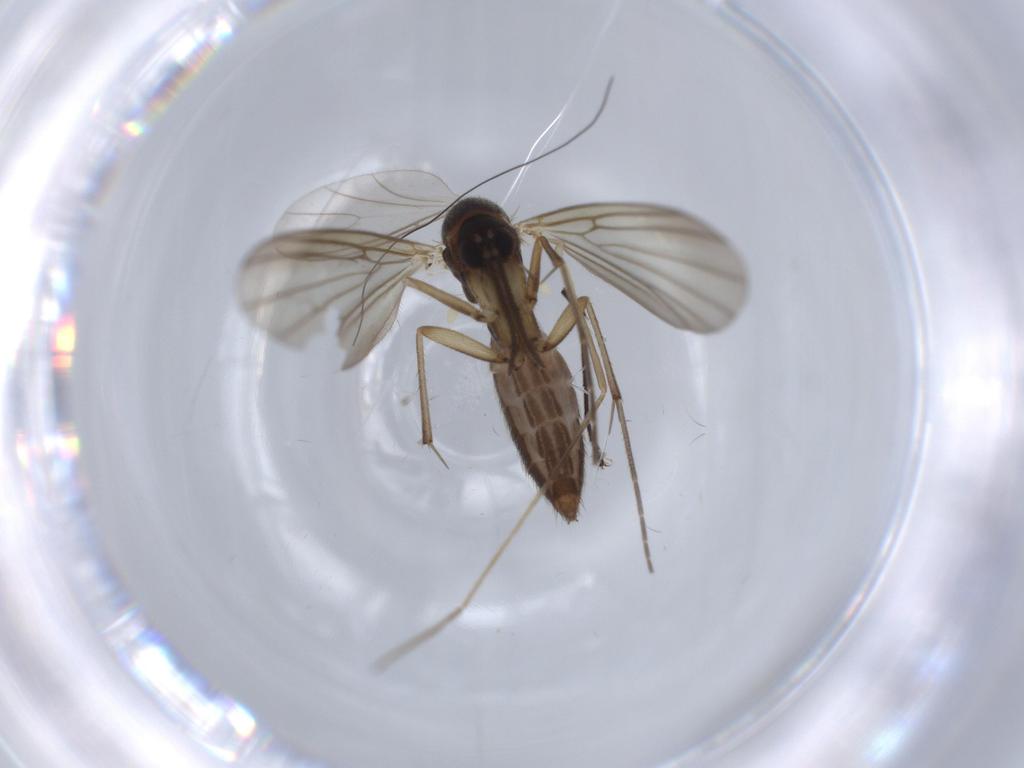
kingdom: Animalia
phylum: Arthropoda
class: Insecta
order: Diptera
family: Mycetophilidae
